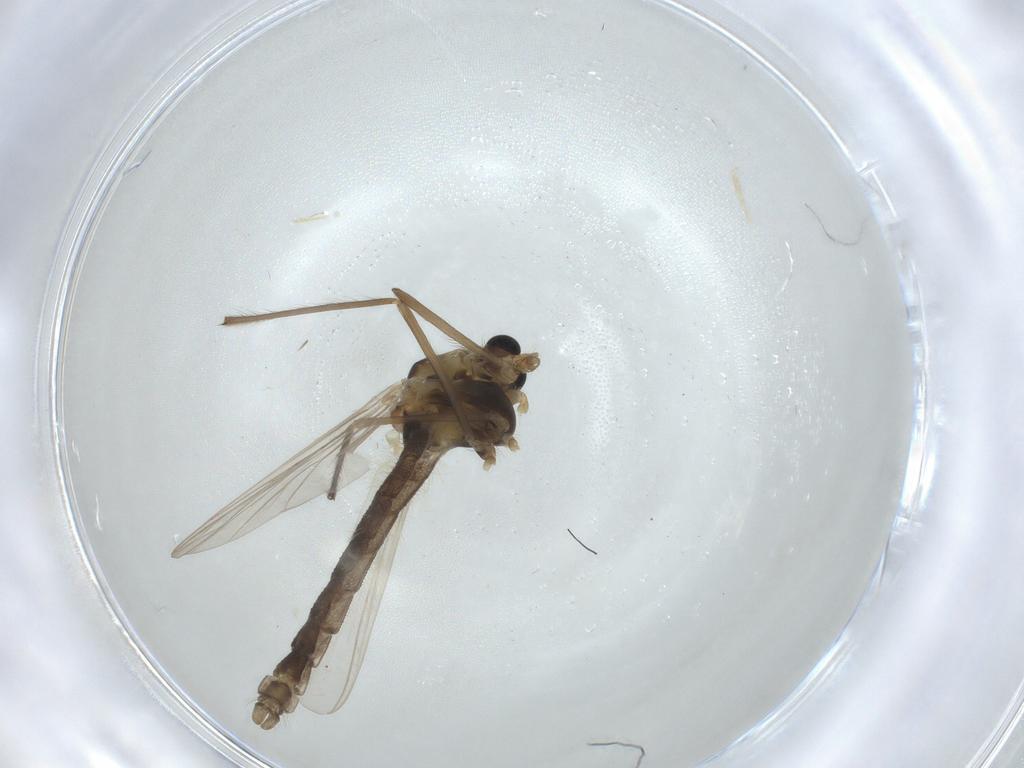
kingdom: Animalia
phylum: Arthropoda
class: Insecta
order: Diptera
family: Chironomidae
